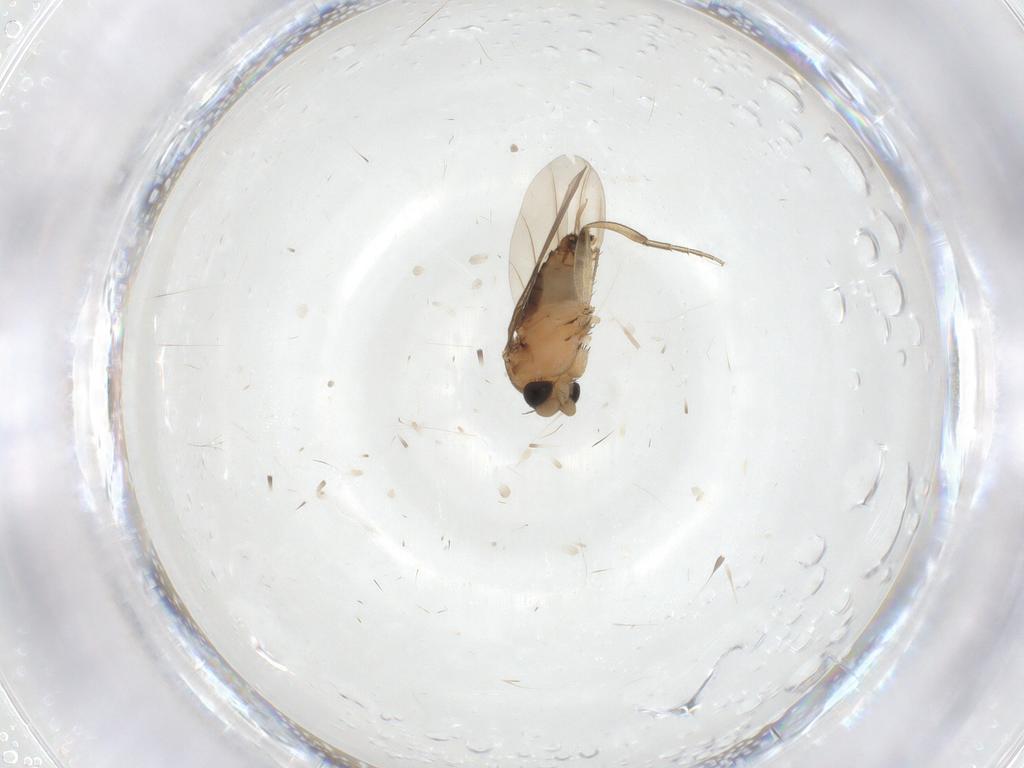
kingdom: Animalia
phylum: Arthropoda
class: Insecta
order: Diptera
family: Phoridae
